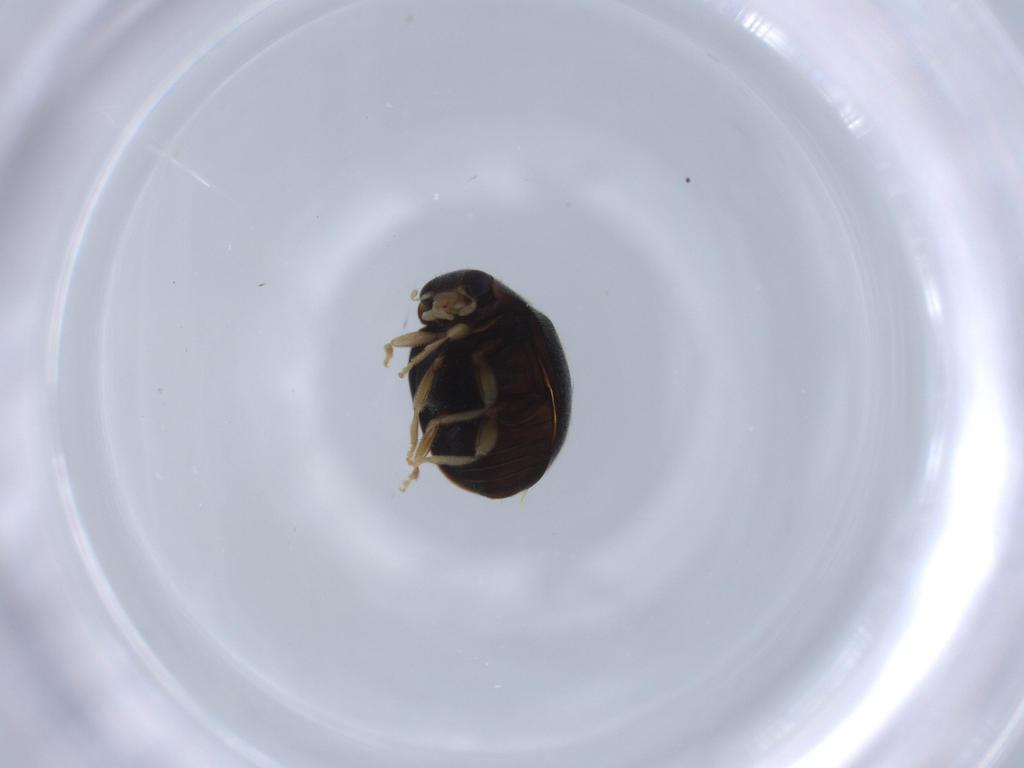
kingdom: Animalia
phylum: Arthropoda
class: Insecta
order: Coleoptera
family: Coccinellidae
